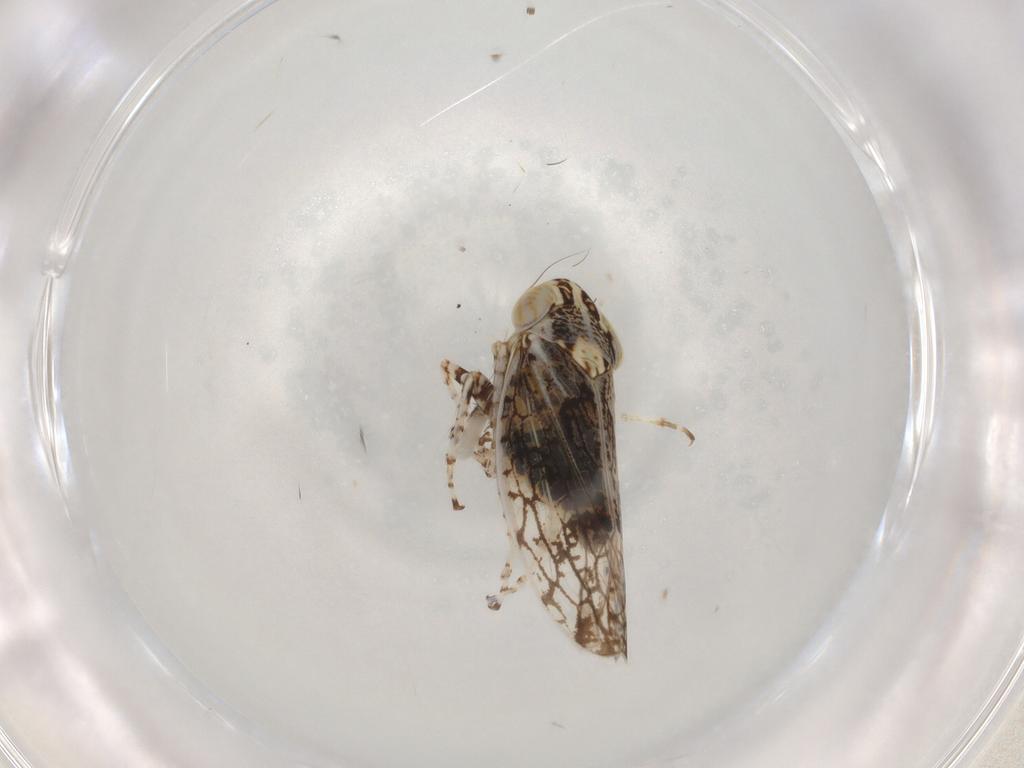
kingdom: Animalia
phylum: Arthropoda
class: Insecta
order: Hemiptera
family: Cicadellidae
